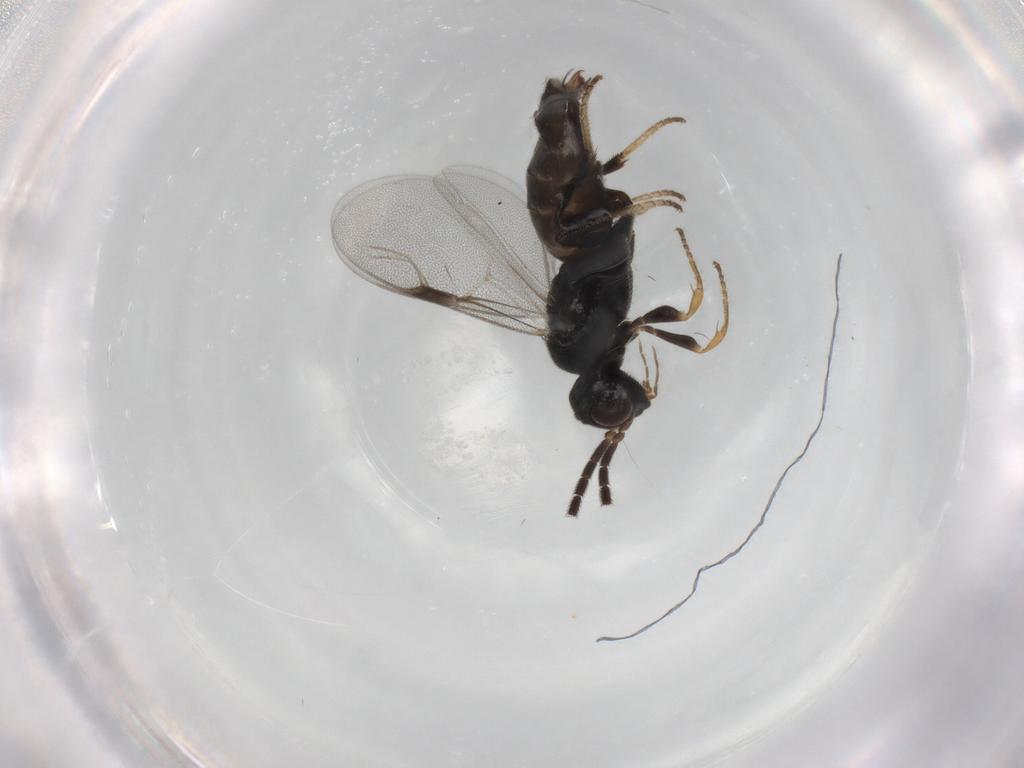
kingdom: Animalia
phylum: Arthropoda
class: Insecta
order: Hymenoptera
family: Dryinidae
